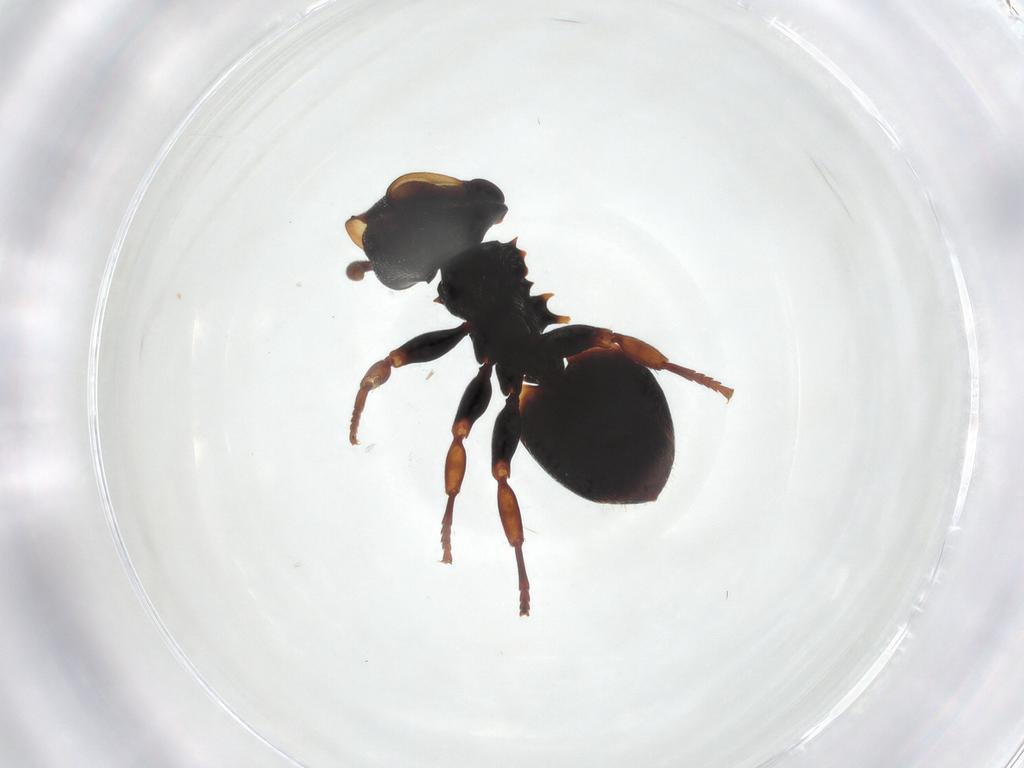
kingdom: Animalia
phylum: Arthropoda
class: Insecta
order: Hymenoptera
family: Formicidae
